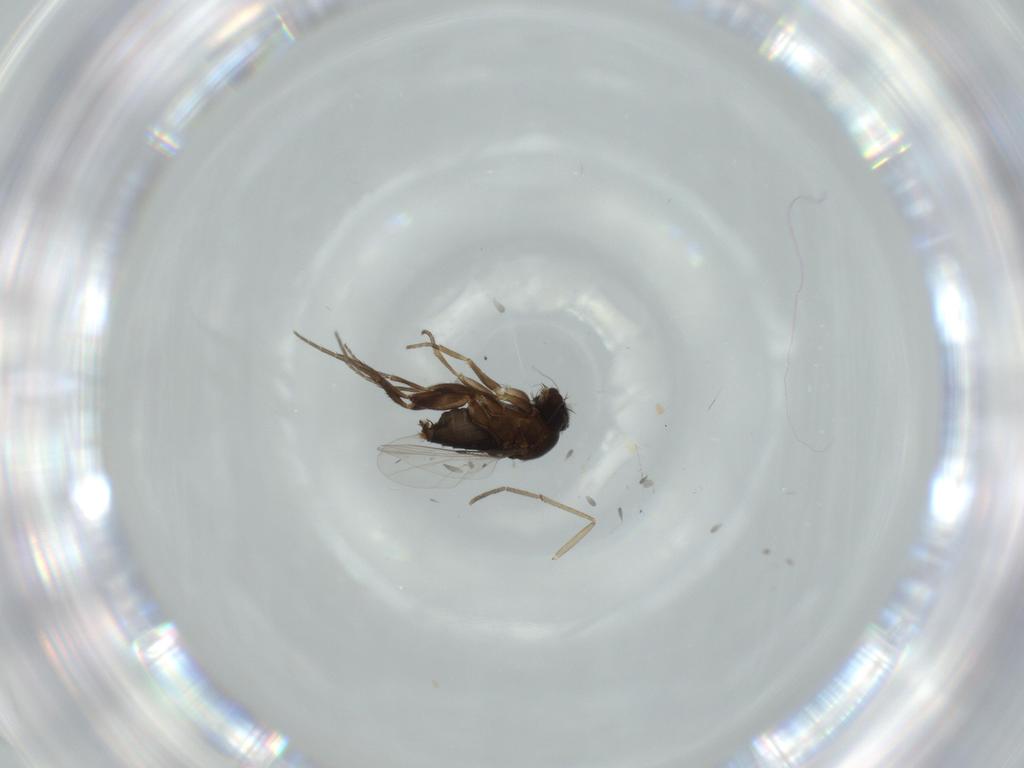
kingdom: Animalia
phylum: Arthropoda
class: Insecta
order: Diptera
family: Phoridae
